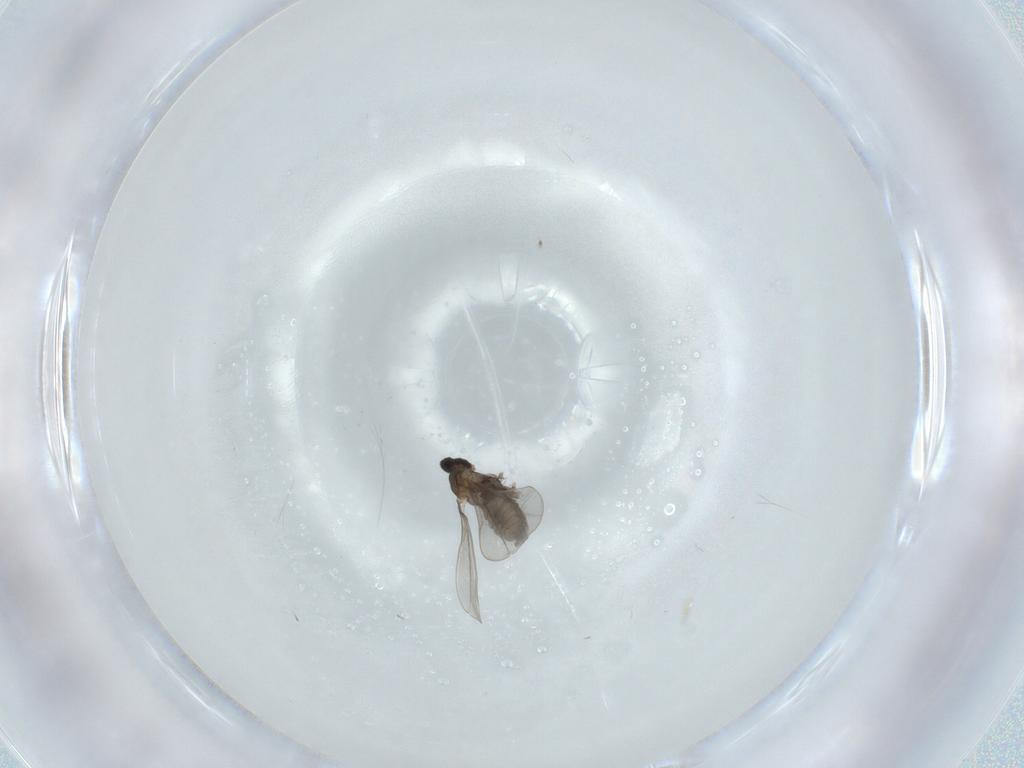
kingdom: Animalia
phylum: Arthropoda
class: Insecta
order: Diptera
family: Cecidomyiidae
